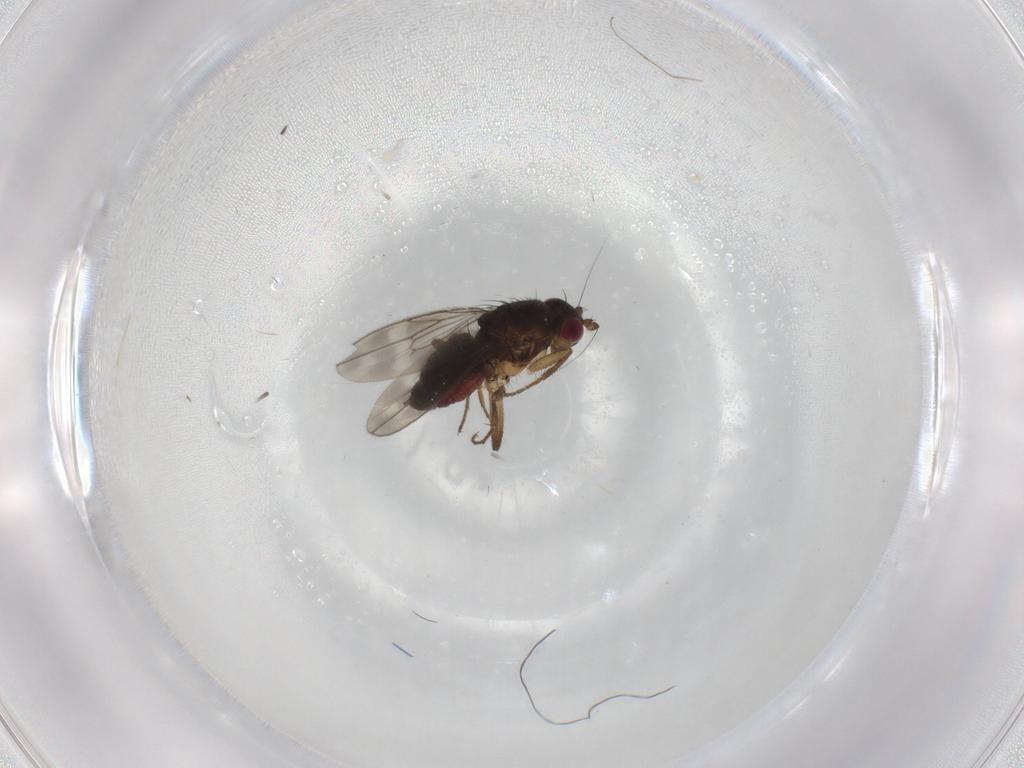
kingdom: Animalia
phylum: Arthropoda
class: Insecta
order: Diptera
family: Sphaeroceridae
